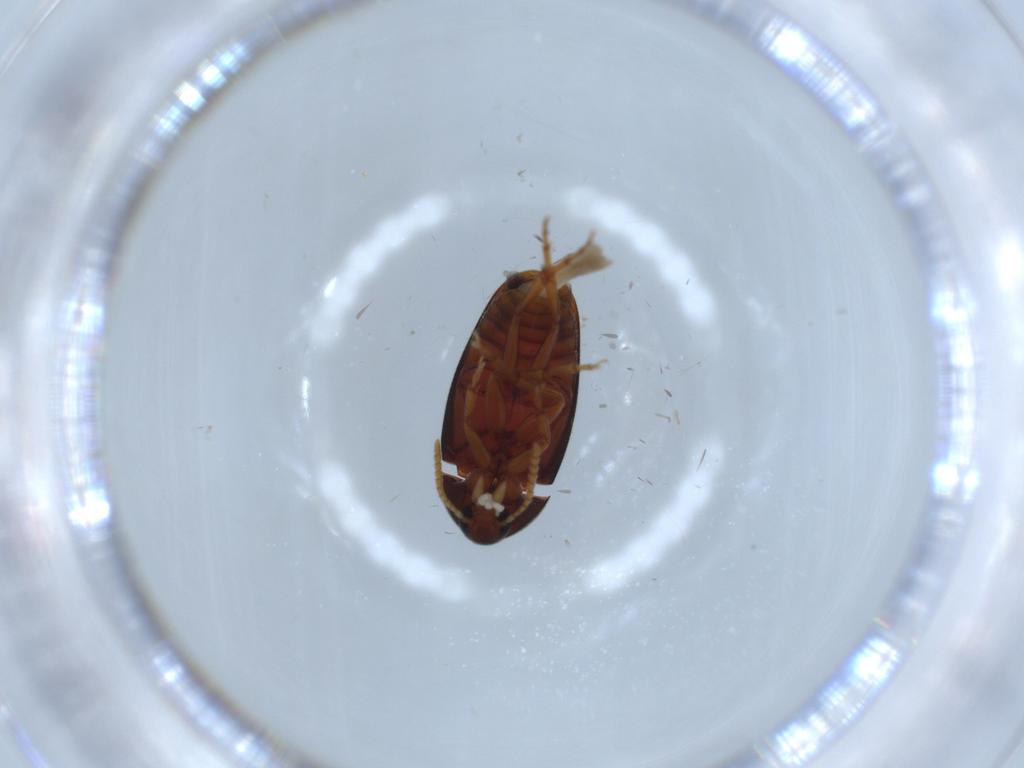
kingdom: Animalia
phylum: Arthropoda
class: Insecta
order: Coleoptera
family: Scraptiidae
